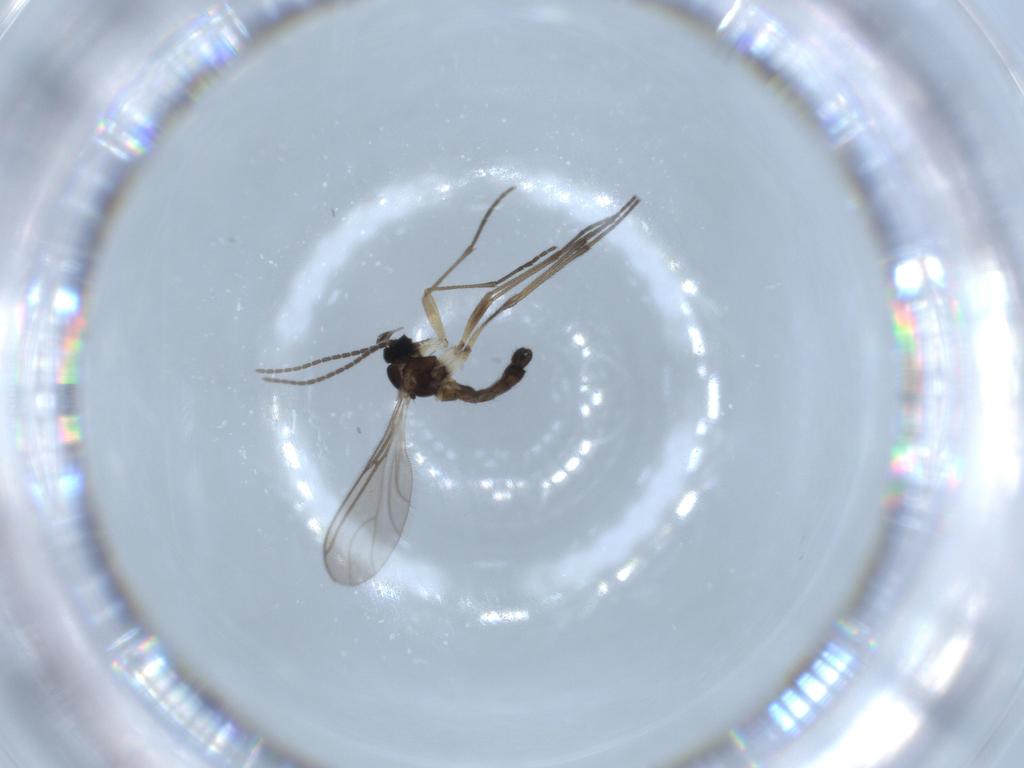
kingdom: Animalia
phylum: Arthropoda
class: Insecta
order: Diptera
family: Sciaridae
